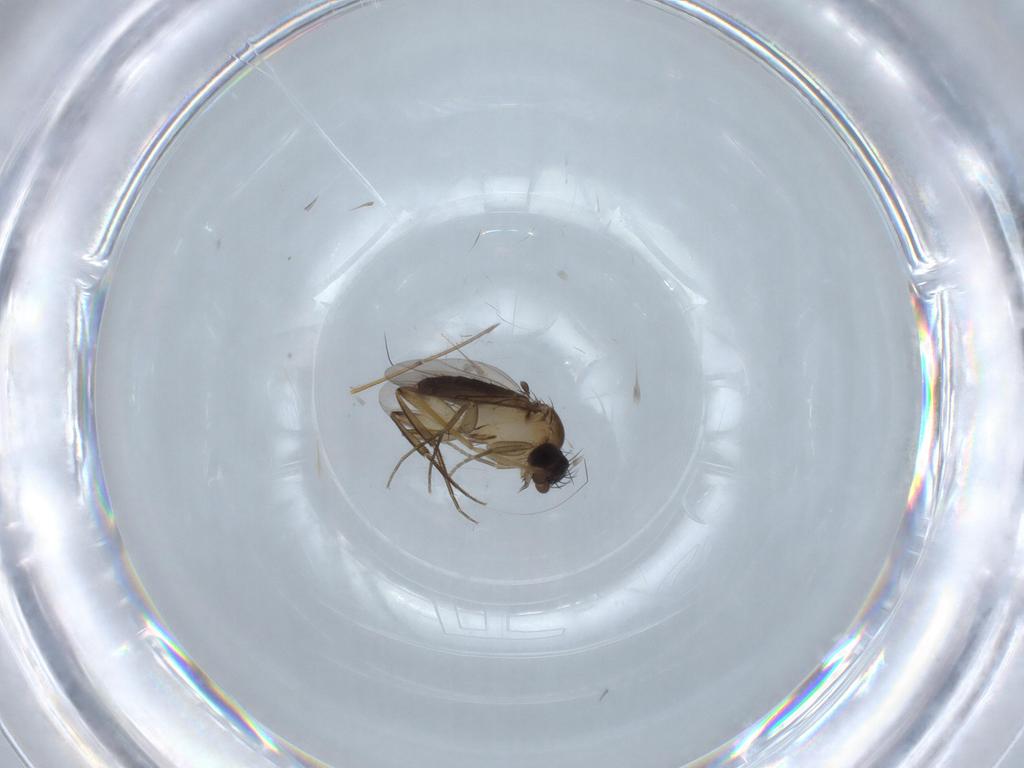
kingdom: Animalia
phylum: Arthropoda
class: Insecta
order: Diptera
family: Phoridae
